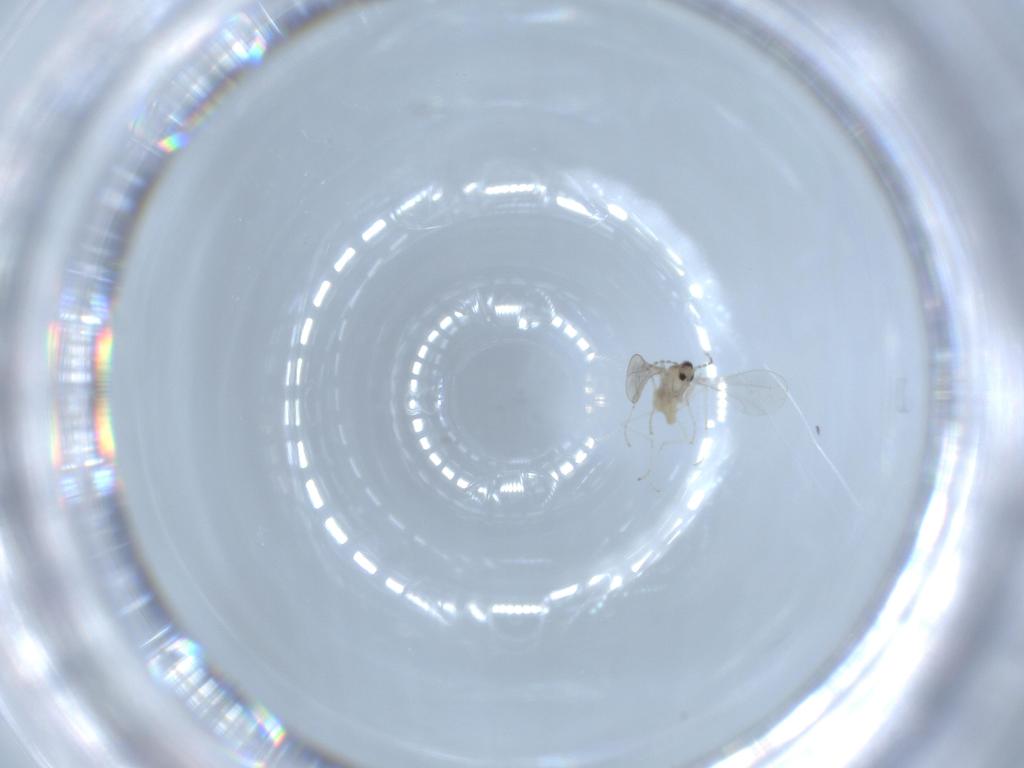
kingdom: Animalia
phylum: Arthropoda
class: Insecta
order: Diptera
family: Cecidomyiidae
